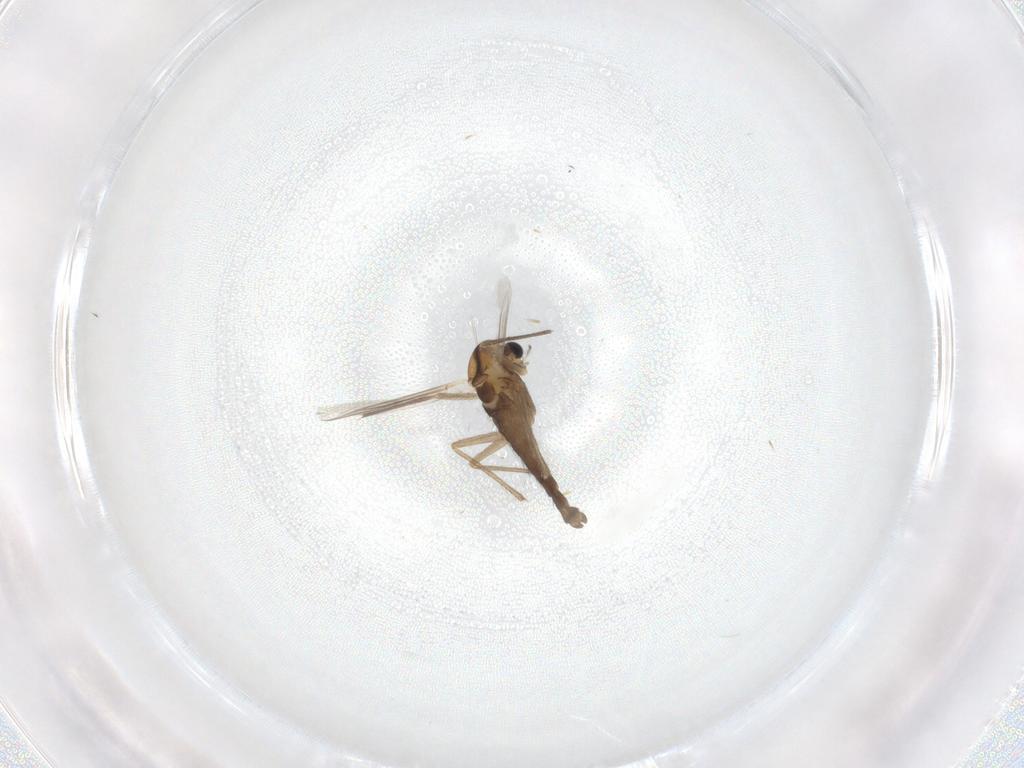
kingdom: Animalia
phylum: Arthropoda
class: Insecta
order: Diptera
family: Chironomidae
